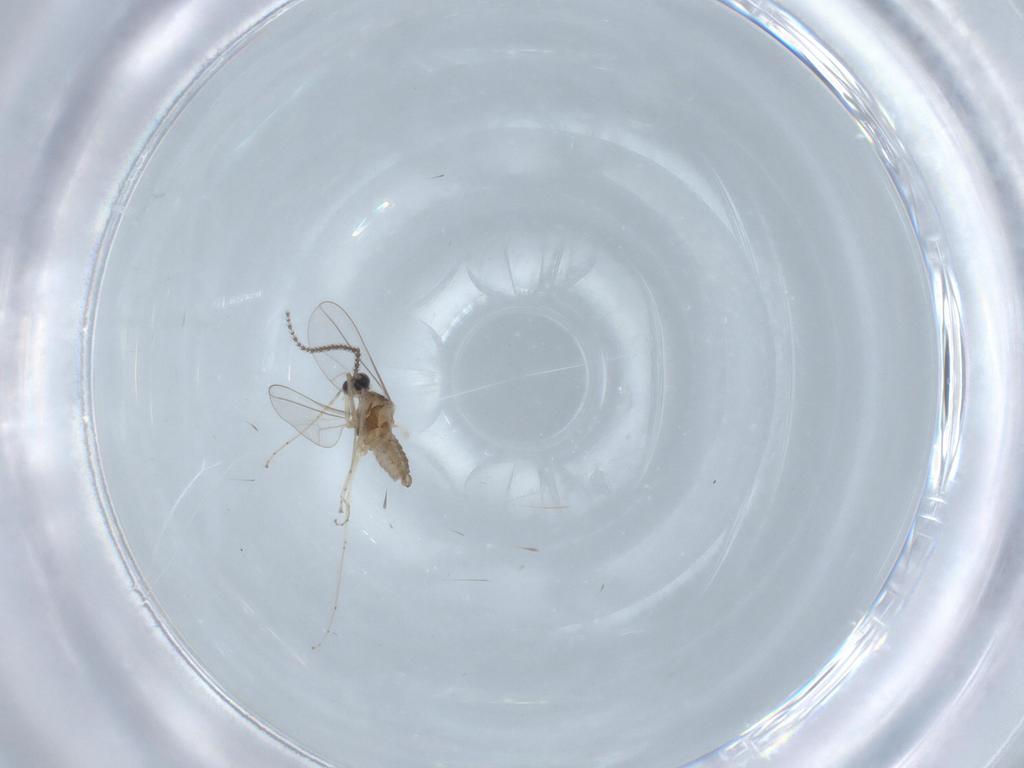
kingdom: Animalia
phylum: Arthropoda
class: Insecta
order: Diptera
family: Cecidomyiidae
